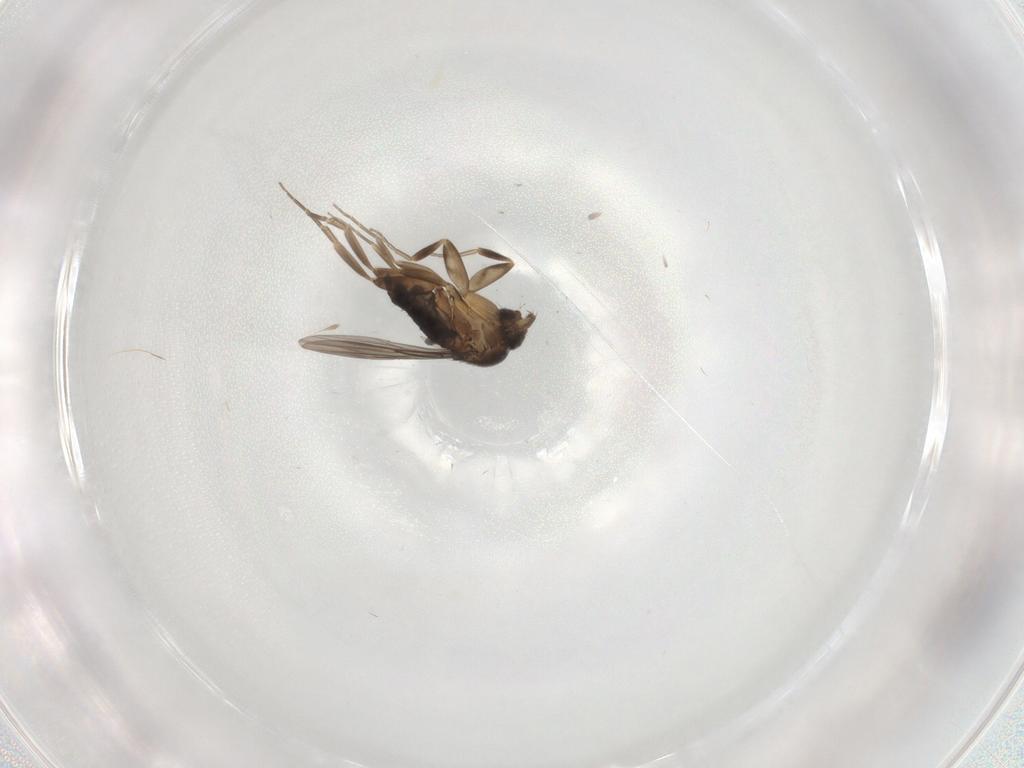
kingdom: Animalia
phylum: Arthropoda
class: Insecta
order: Diptera
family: Phoridae
